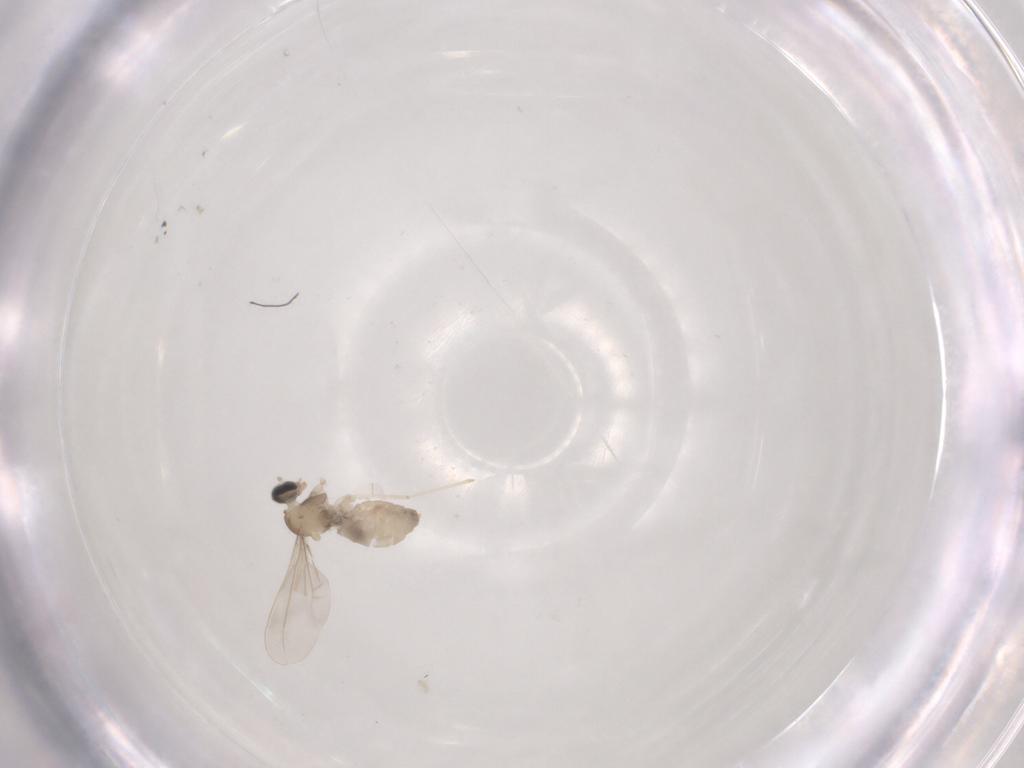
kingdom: Animalia
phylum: Arthropoda
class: Insecta
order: Diptera
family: Cecidomyiidae
